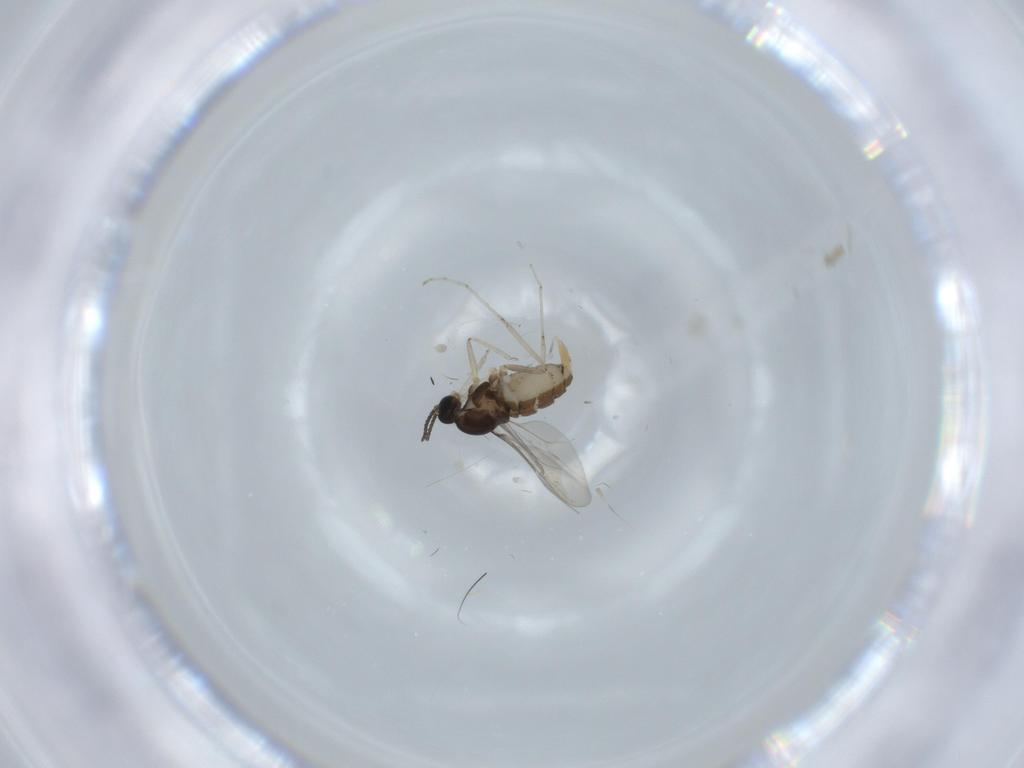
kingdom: Animalia
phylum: Arthropoda
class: Insecta
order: Diptera
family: Cecidomyiidae
